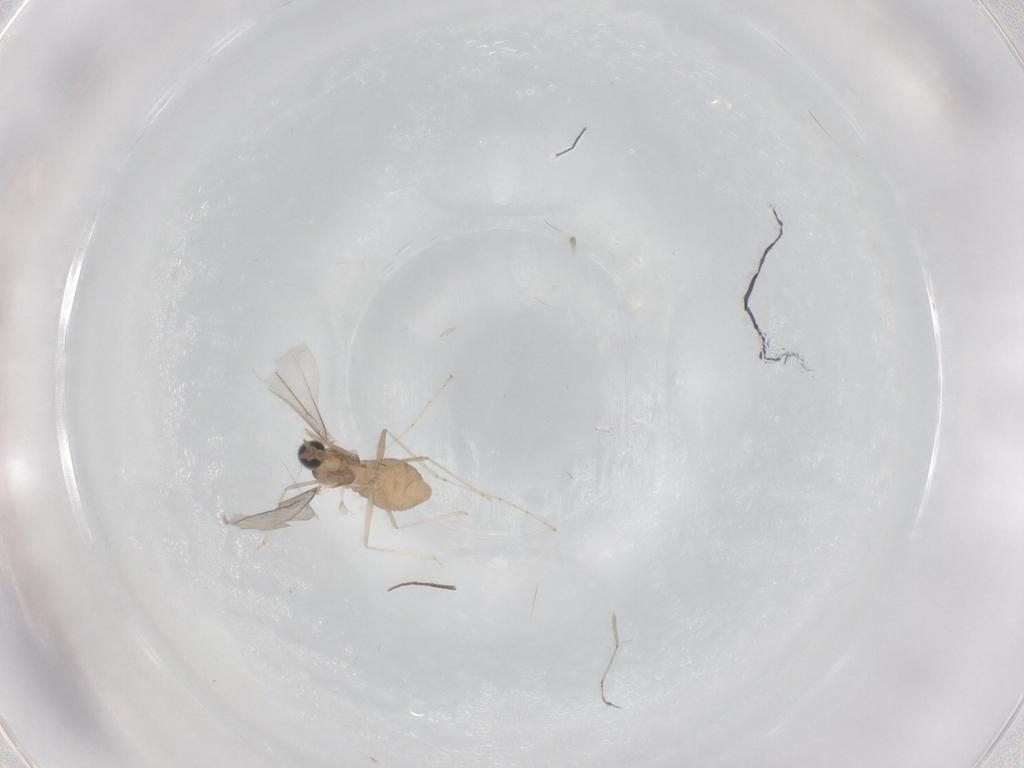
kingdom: Animalia
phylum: Arthropoda
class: Insecta
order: Diptera
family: Cecidomyiidae
